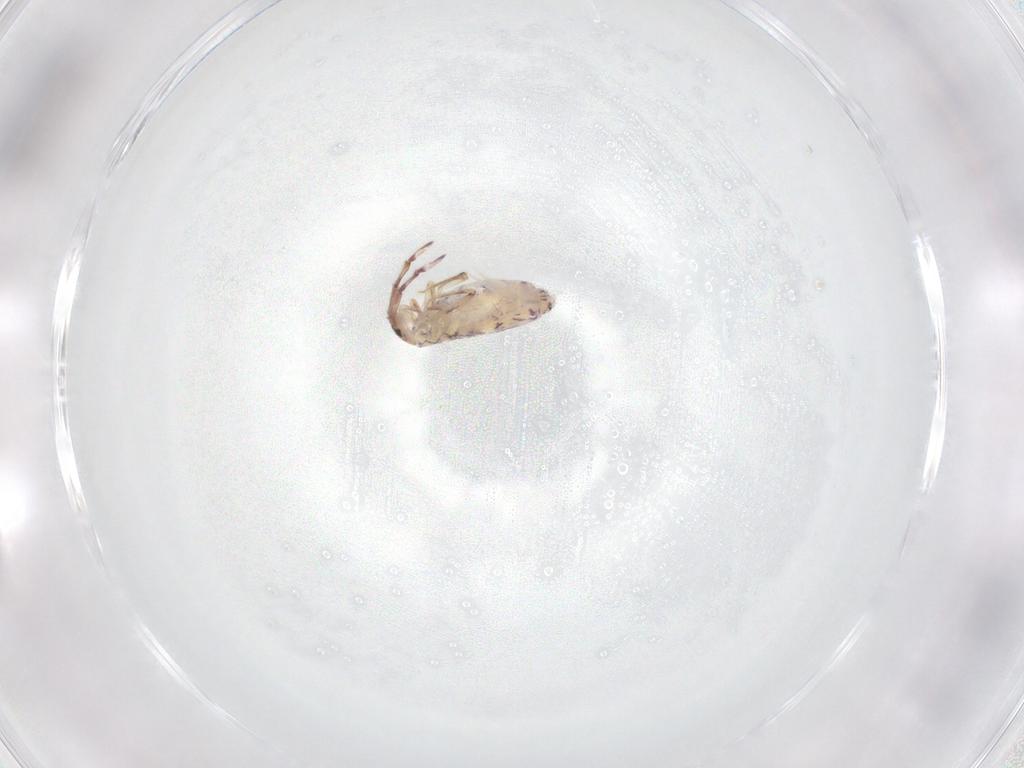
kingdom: Animalia
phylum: Arthropoda
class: Collembola
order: Entomobryomorpha
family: Entomobryidae
